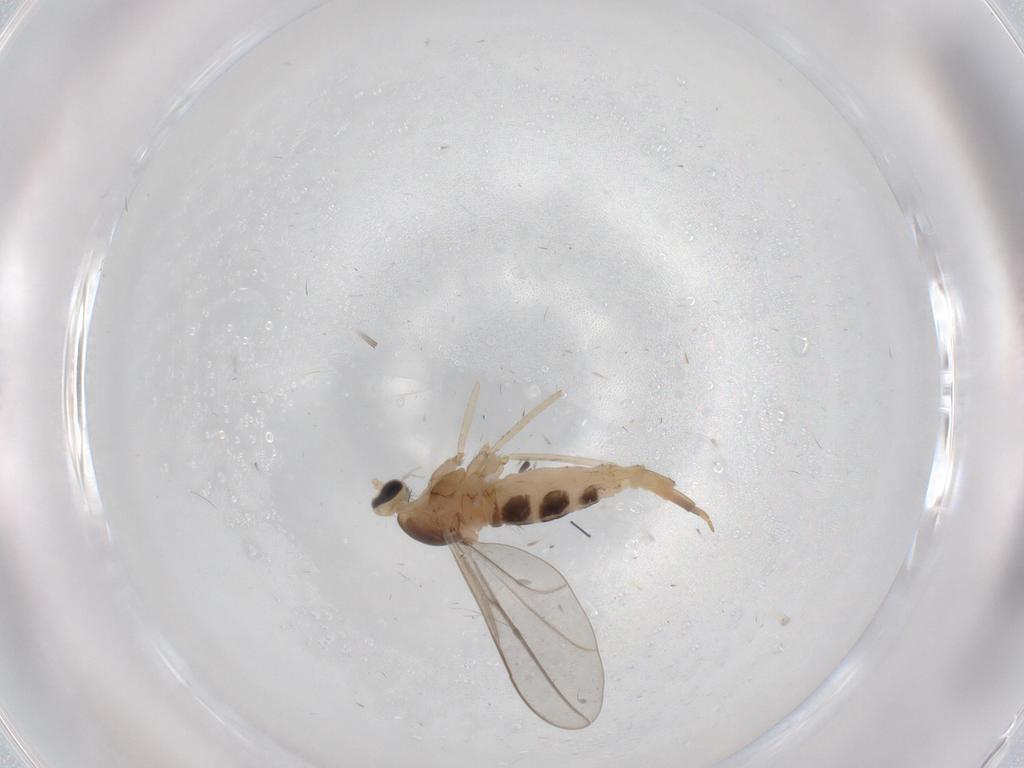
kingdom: Animalia
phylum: Arthropoda
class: Insecta
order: Diptera
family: Cecidomyiidae
